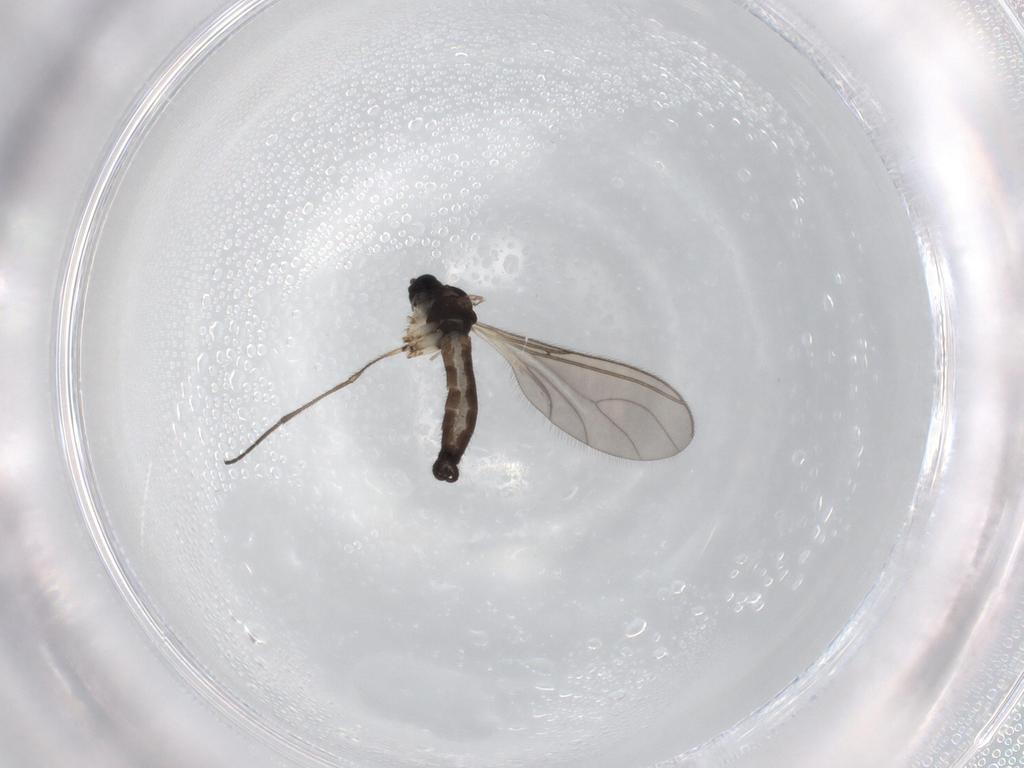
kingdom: Animalia
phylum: Arthropoda
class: Insecta
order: Diptera
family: Sciaridae
